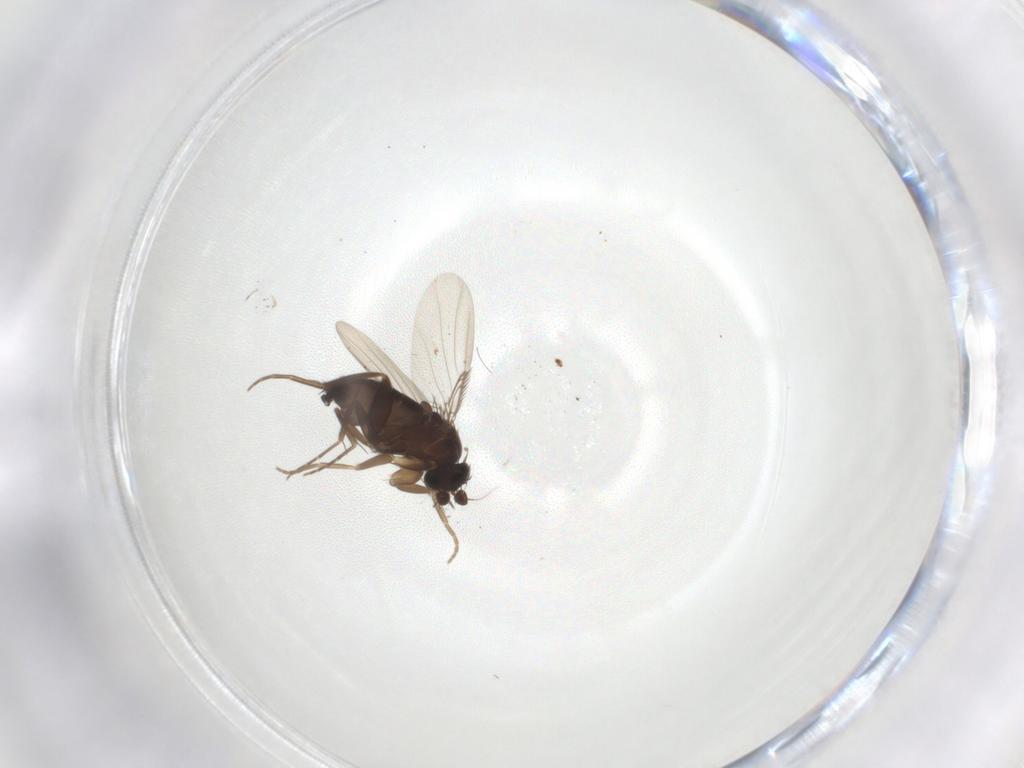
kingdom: Animalia
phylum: Arthropoda
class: Insecta
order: Diptera
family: Phoridae
